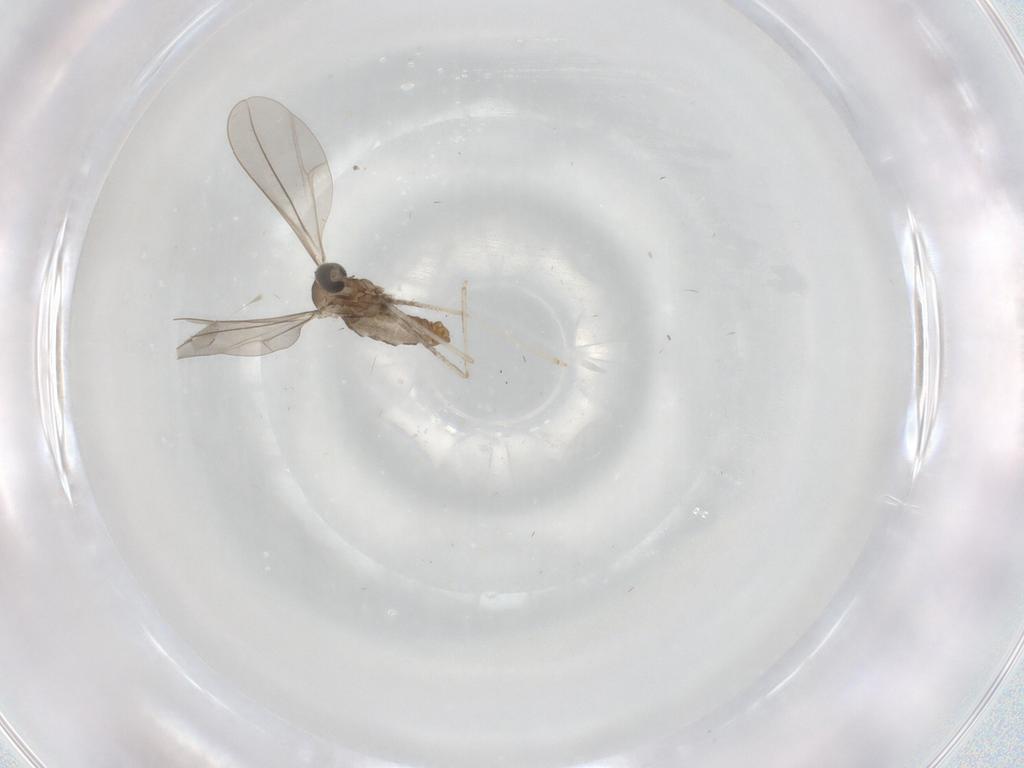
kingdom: Animalia
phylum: Arthropoda
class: Insecta
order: Diptera
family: Cecidomyiidae
